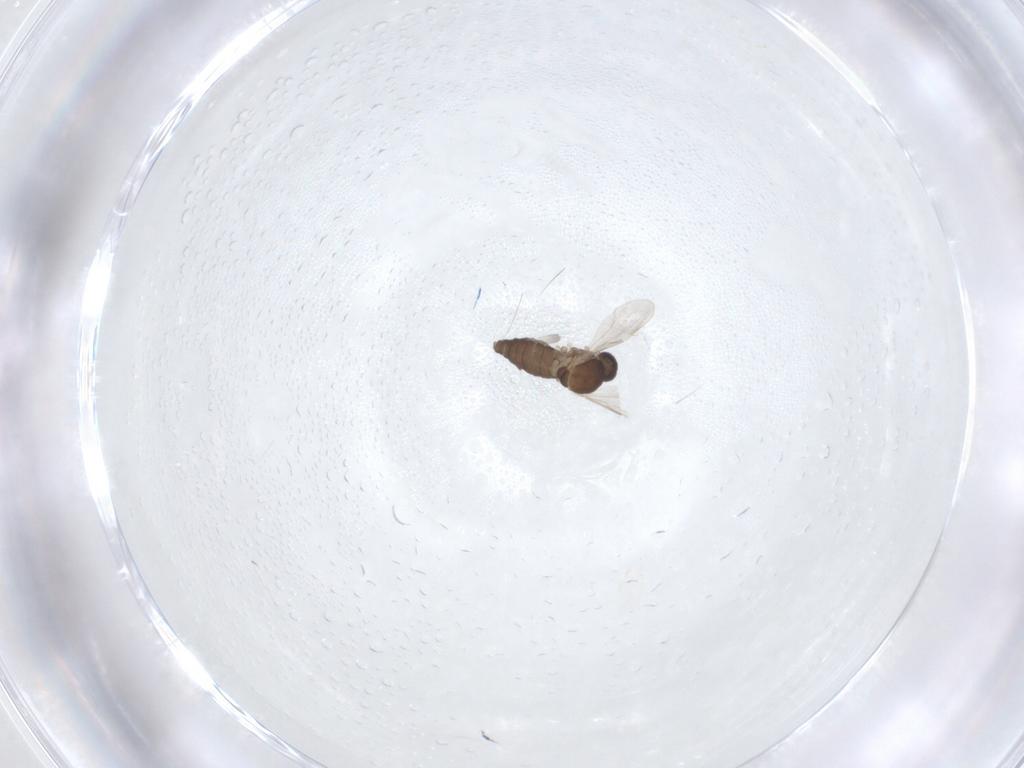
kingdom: Animalia
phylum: Arthropoda
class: Insecta
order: Diptera
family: Ceratopogonidae
